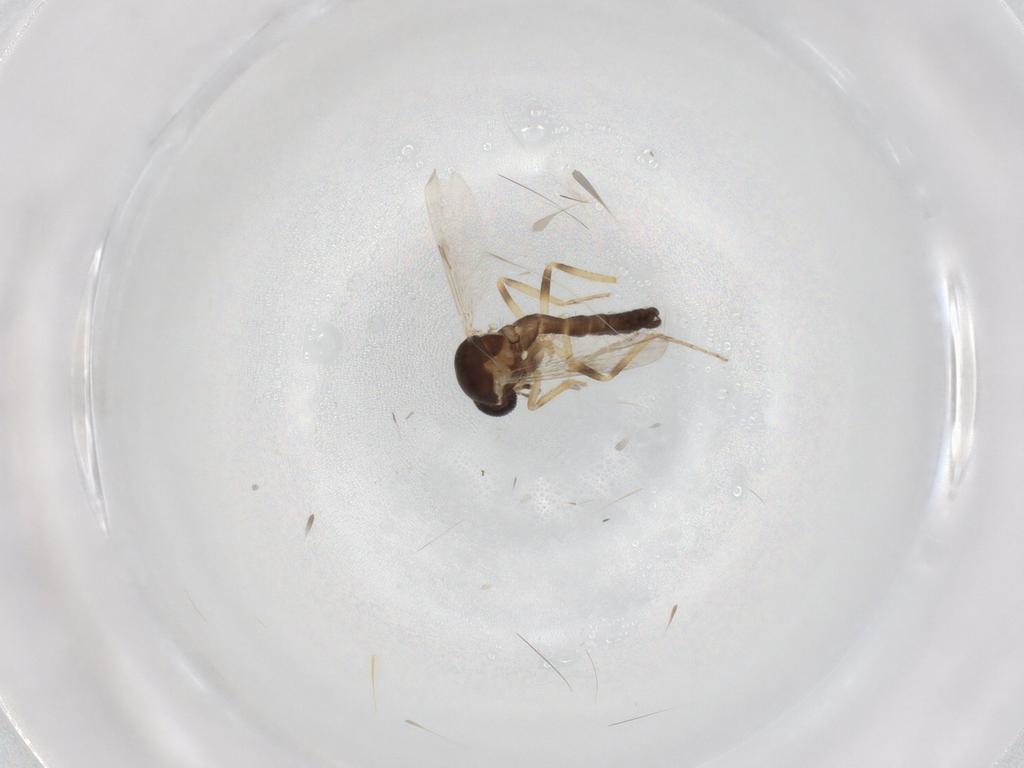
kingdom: Animalia
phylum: Arthropoda
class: Insecta
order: Diptera
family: Ceratopogonidae
